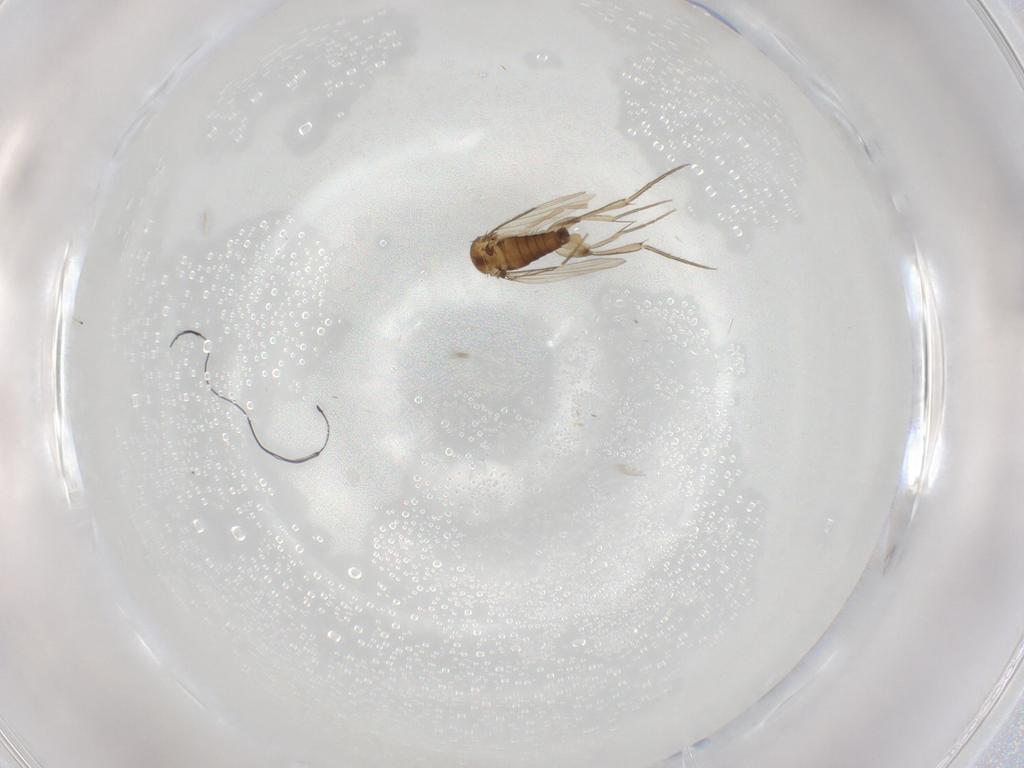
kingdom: Animalia
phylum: Arthropoda
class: Insecta
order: Diptera
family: Phoridae
